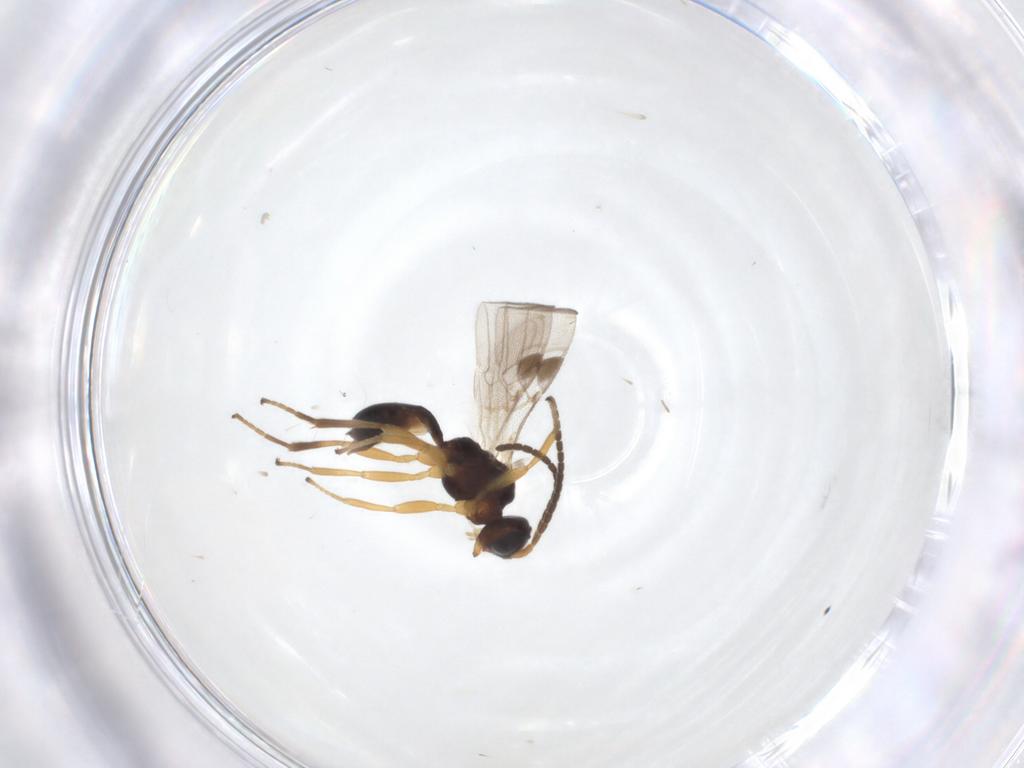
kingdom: Animalia
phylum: Arthropoda
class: Insecta
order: Hymenoptera
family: Braconidae
